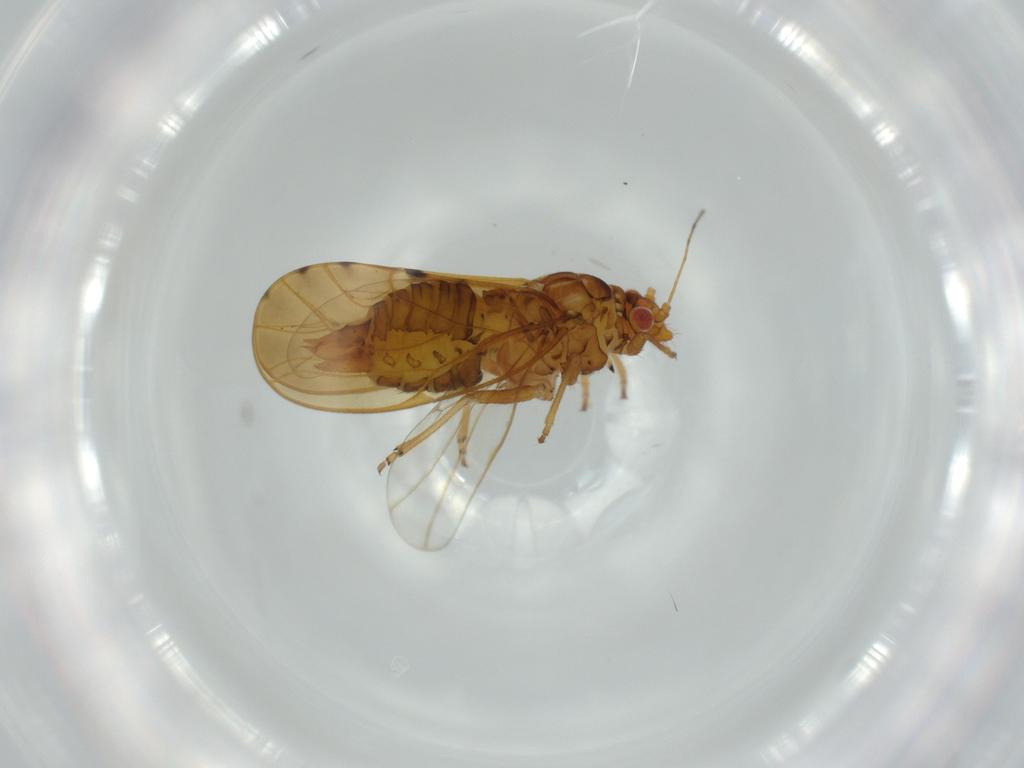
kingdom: Animalia
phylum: Arthropoda
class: Insecta
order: Hemiptera
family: Psylloidea_incertae_sedis
